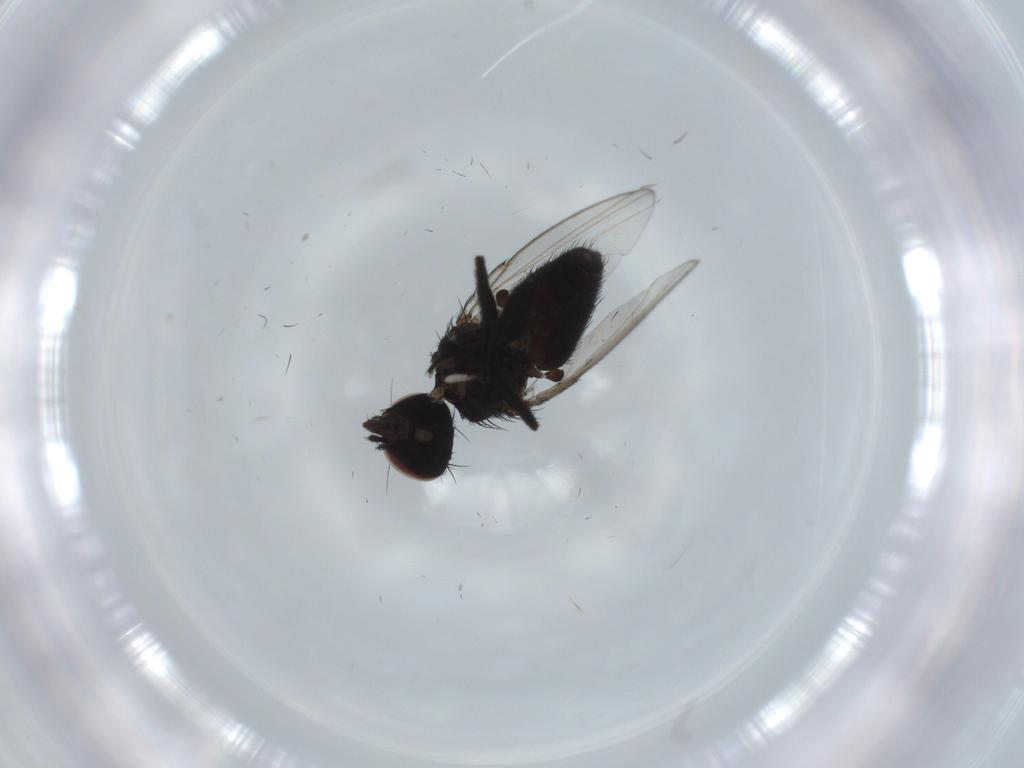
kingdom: Animalia
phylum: Arthropoda
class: Insecta
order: Diptera
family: Milichiidae
